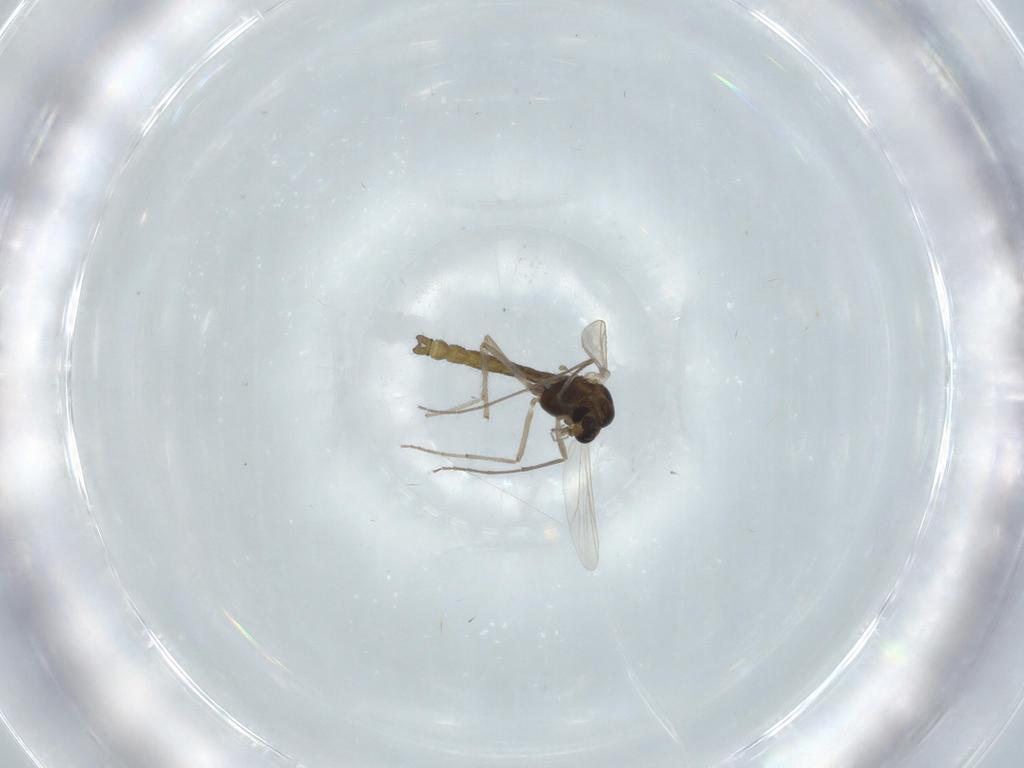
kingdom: Animalia
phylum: Arthropoda
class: Insecta
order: Diptera
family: Chironomidae
